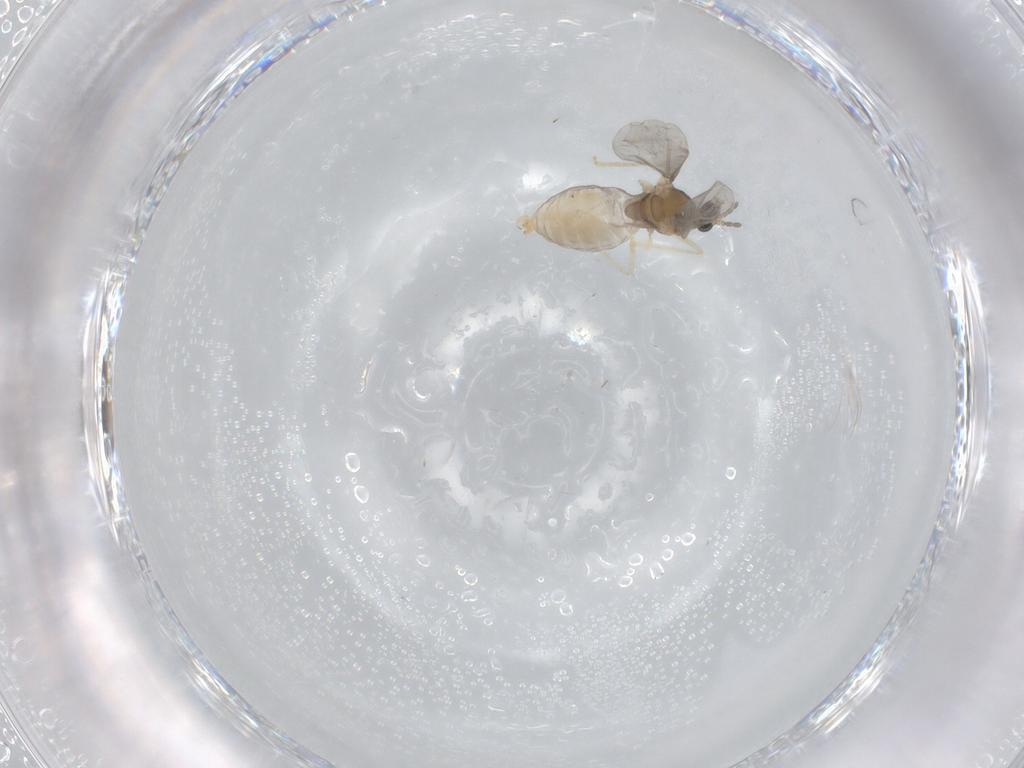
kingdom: Animalia
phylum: Arthropoda
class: Insecta
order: Diptera
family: Cecidomyiidae
